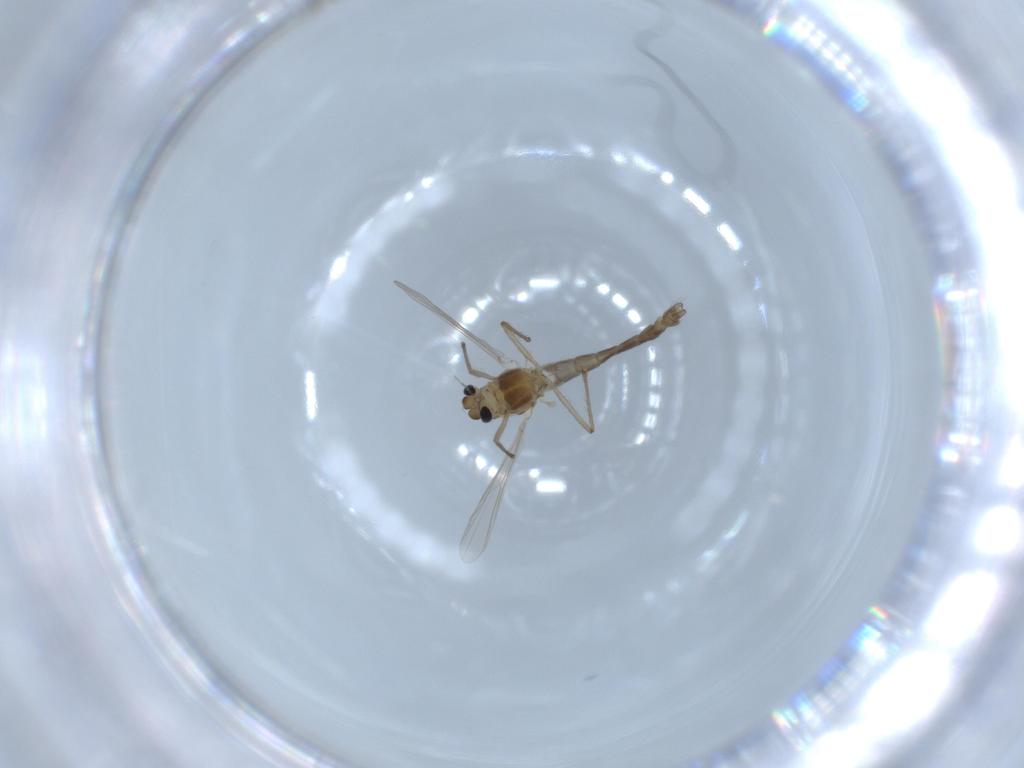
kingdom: Animalia
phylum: Arthropoda
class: Insecta
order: Diptera
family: Chironomidae
